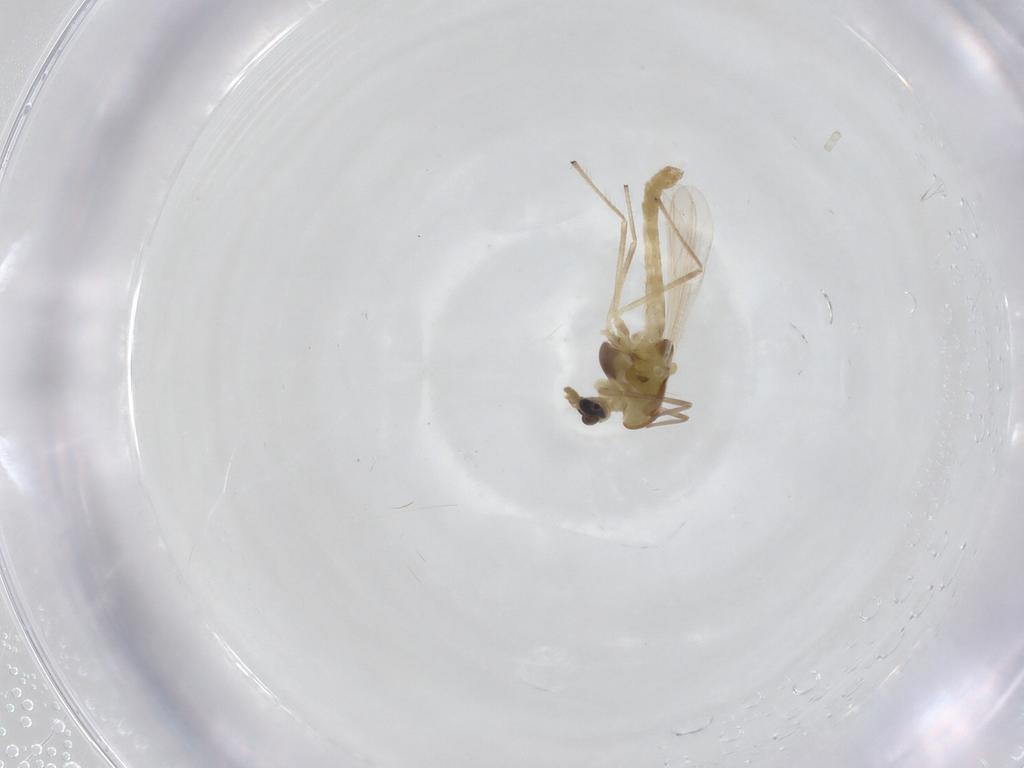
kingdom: Animalia
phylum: Arthropoda
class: Insecta
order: Diptera
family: Chironomidae
